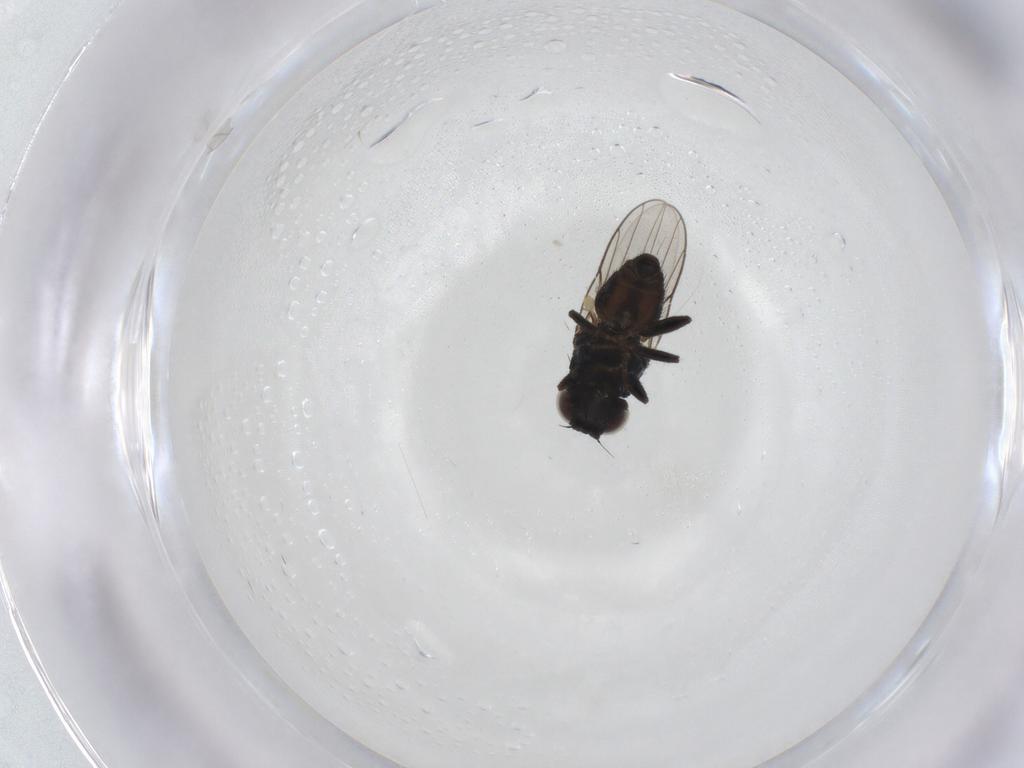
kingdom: Animalia
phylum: Arthropoda
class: Insecta
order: Diptera
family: Chloropidae
